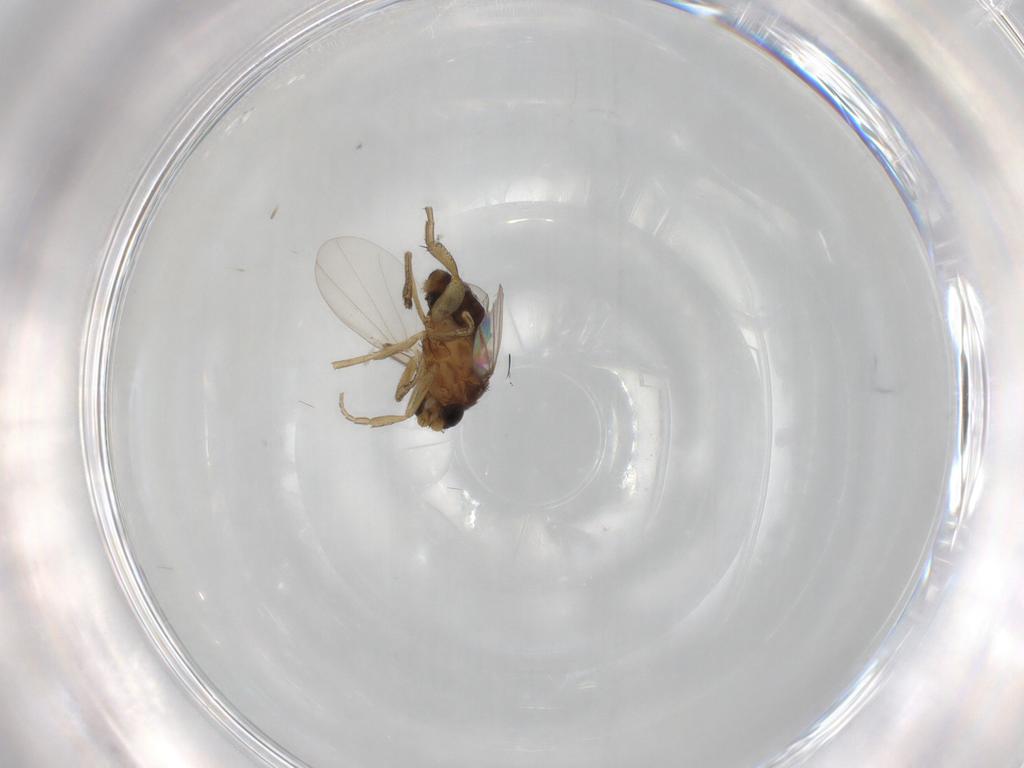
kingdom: Animalia
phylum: Arthropoda
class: Insecta
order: Diptera
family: Phoridae
